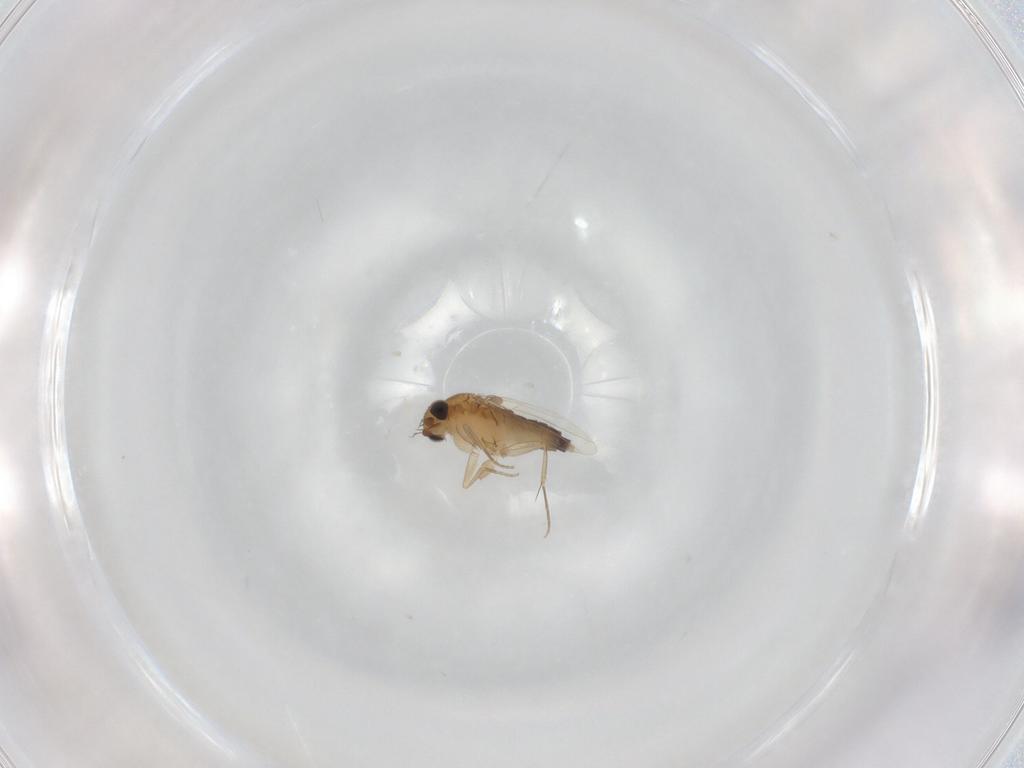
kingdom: Animalia
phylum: Arthropoda
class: Insecta
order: Diptera
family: Phoridae
